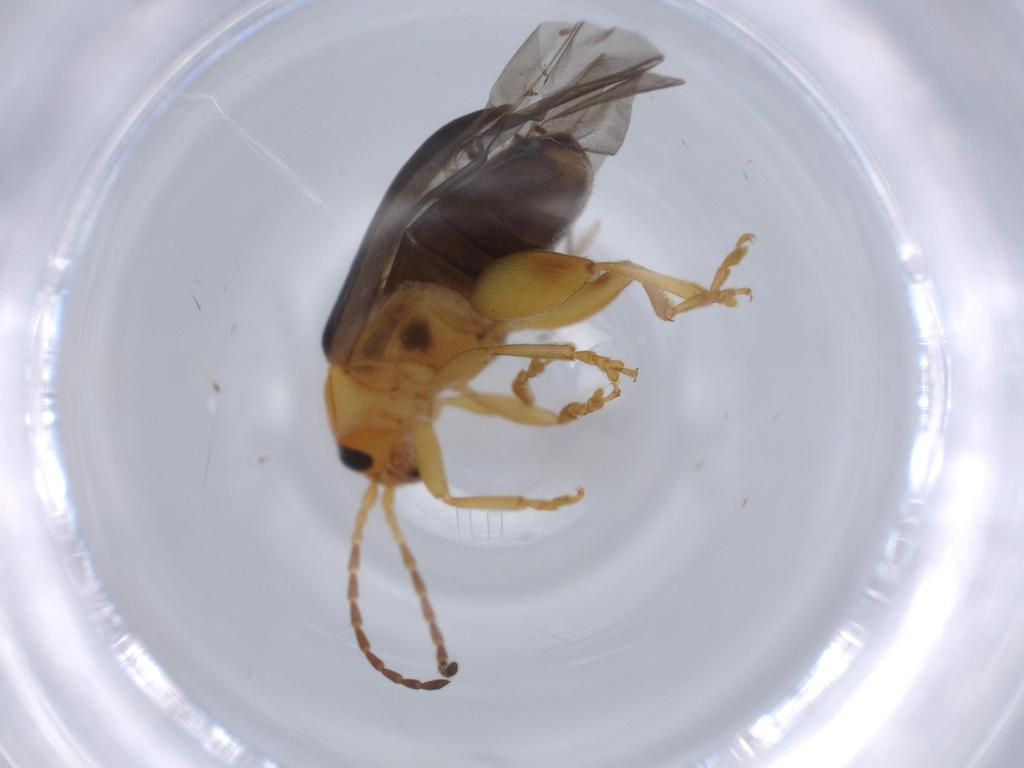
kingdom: Animalia
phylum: Arthropoda
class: Insecta
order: Coleoptera
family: Chrysomelidae
